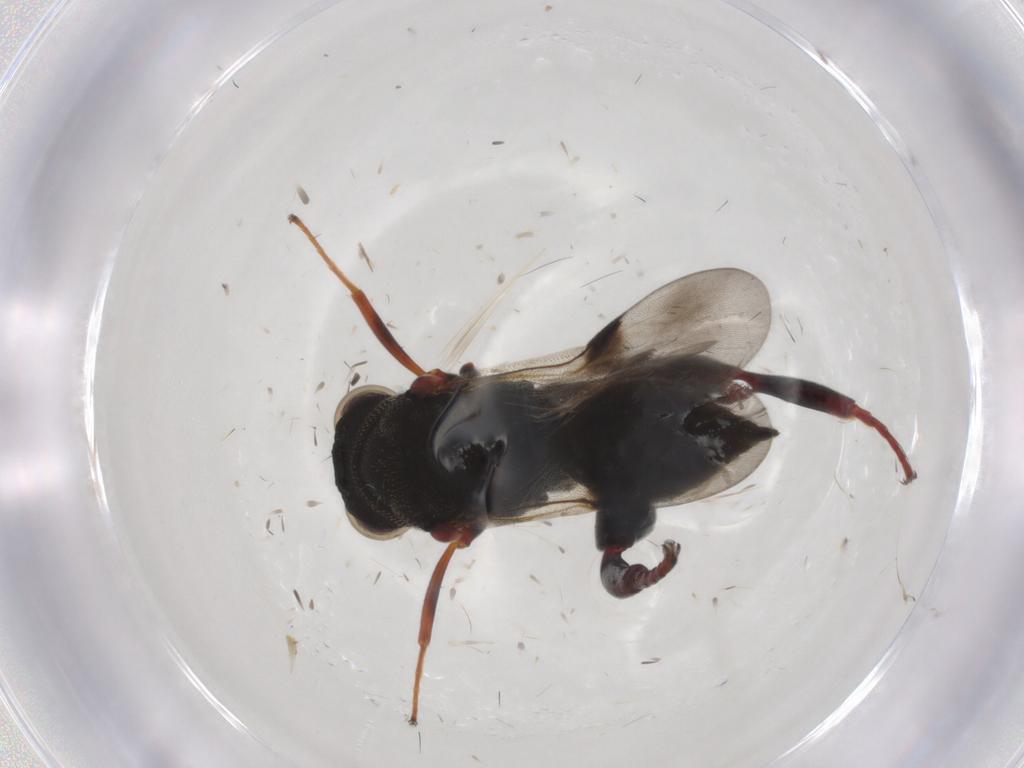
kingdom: Animalia
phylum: Arthropoda
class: Insecta
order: Hymenoptera
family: Chalcididae
